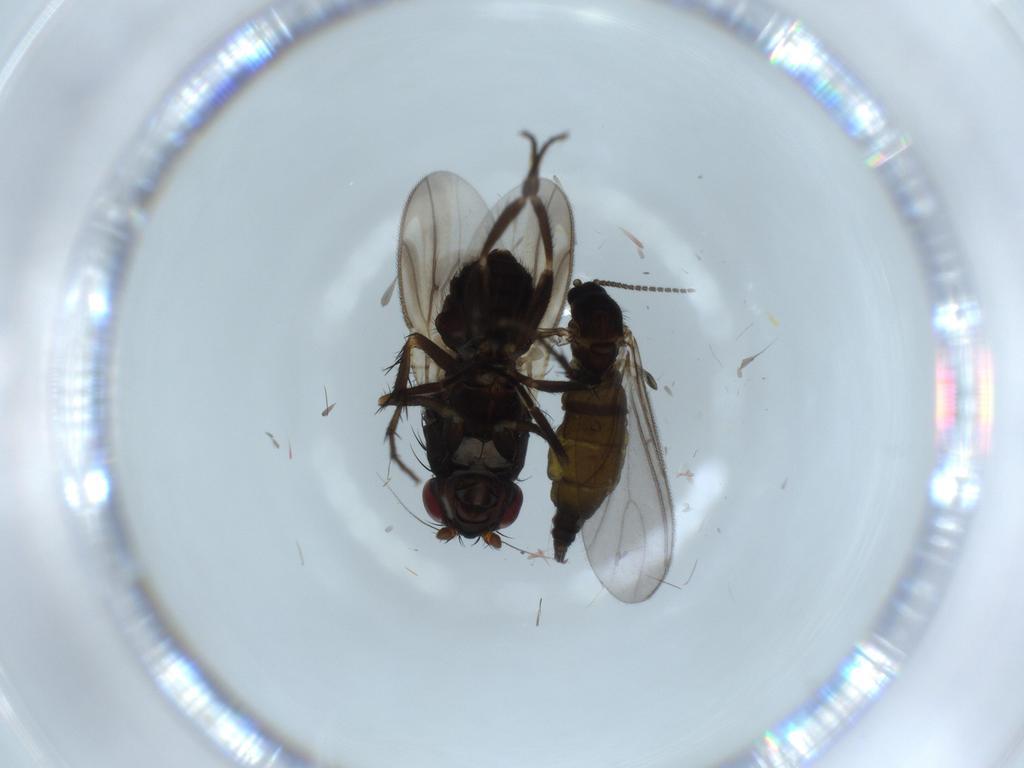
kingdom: Animalia
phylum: Arthropoda
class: Insecta
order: Diptera
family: Sciaridae
